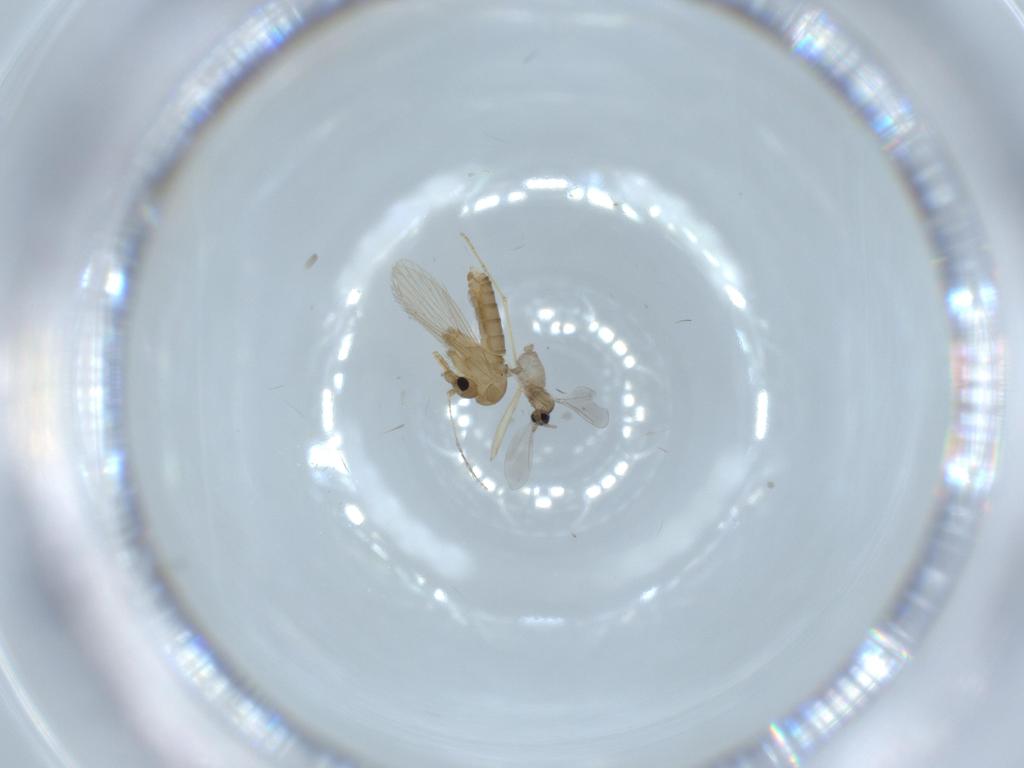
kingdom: Animalia
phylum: Arthropoda
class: Insecta
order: Diptera
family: Psychodidae
